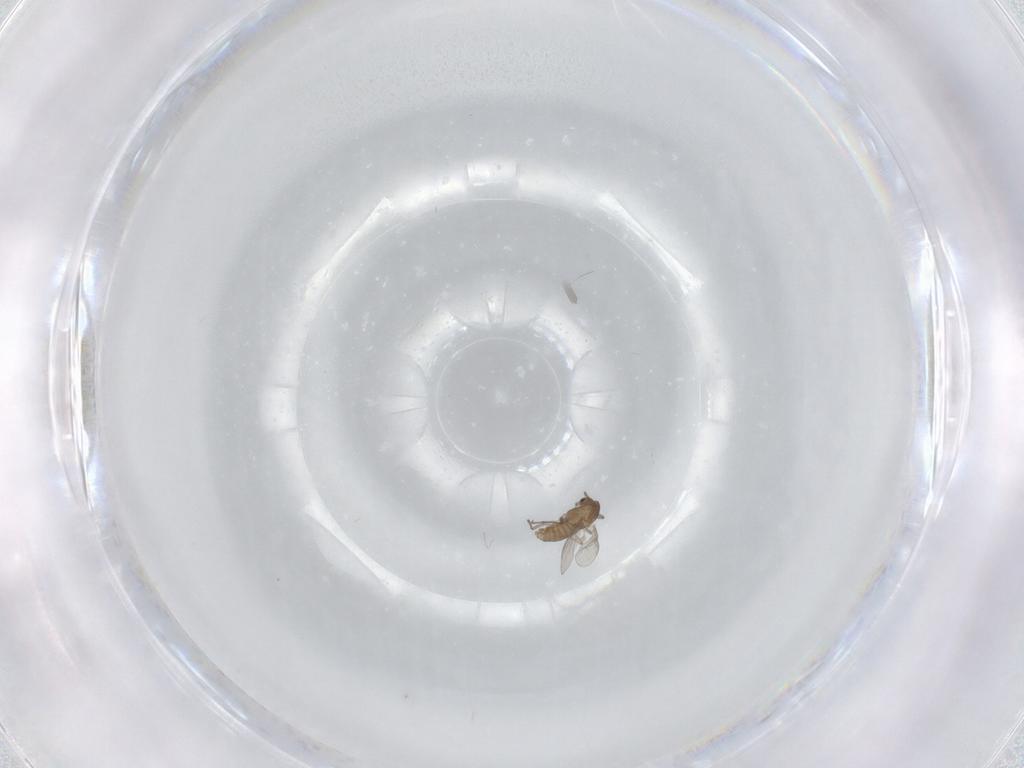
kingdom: Animalia
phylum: Arthropoda
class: Insecta
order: Diptera
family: Chironomidae
